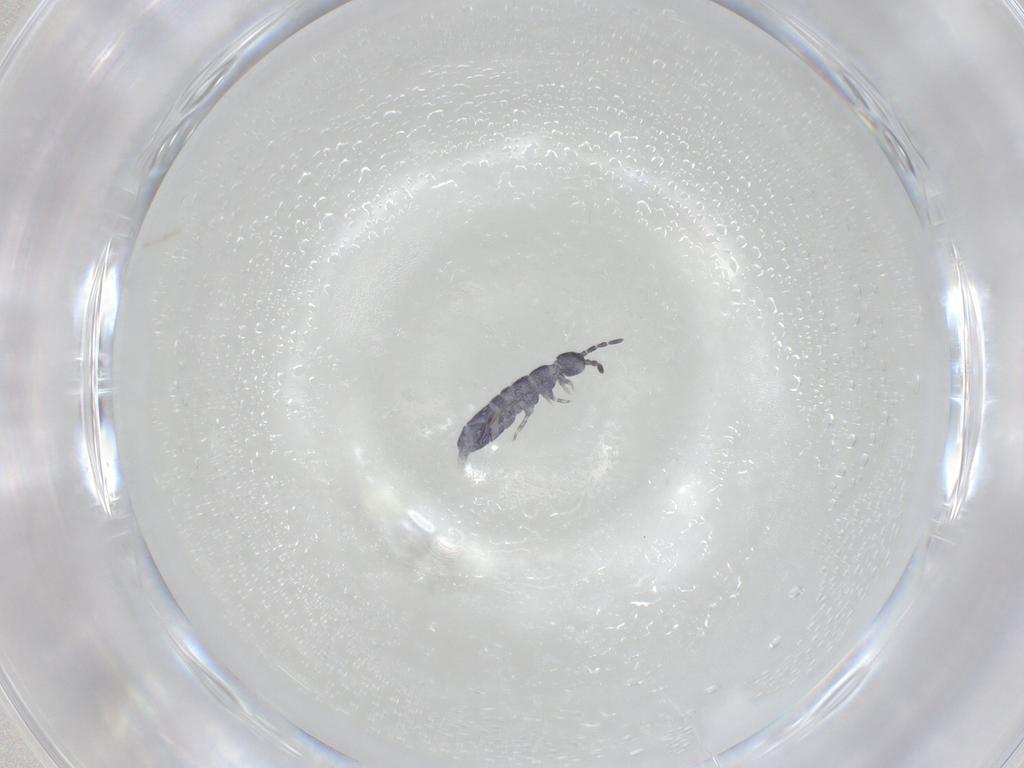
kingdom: Animalia
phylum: Arthropoda
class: Collembola
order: Entomobryomorpha
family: Isotomidae
